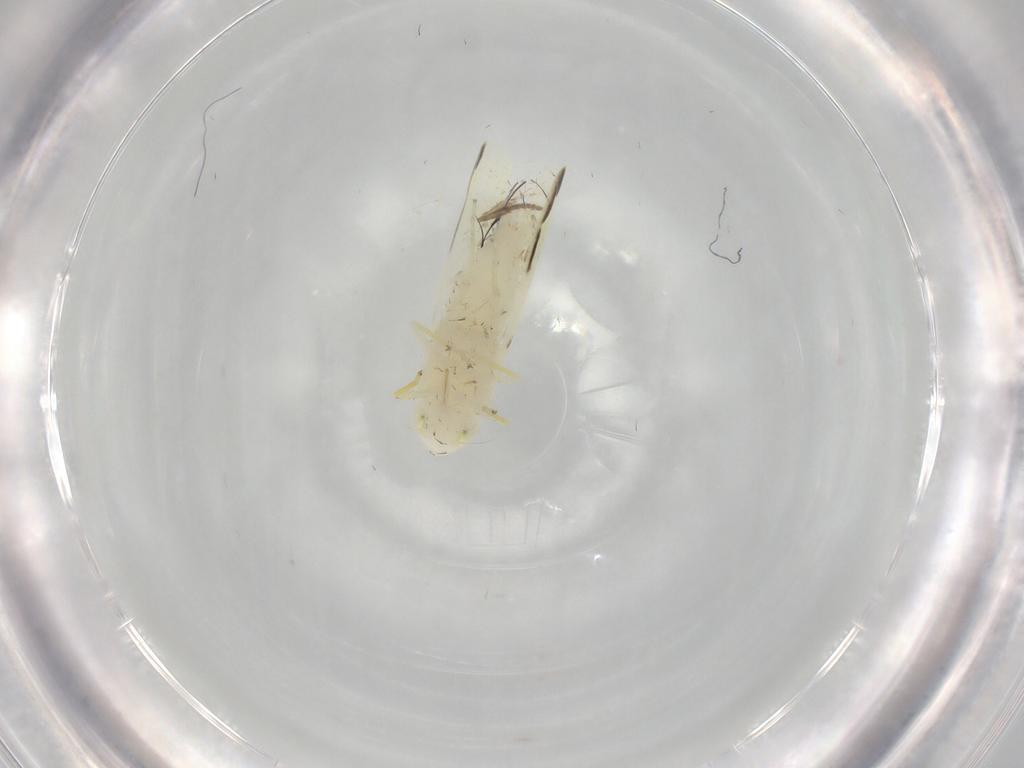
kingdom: Animalia
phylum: Arthropoda
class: Insecta
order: Hemiptera
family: Cicadellidae
